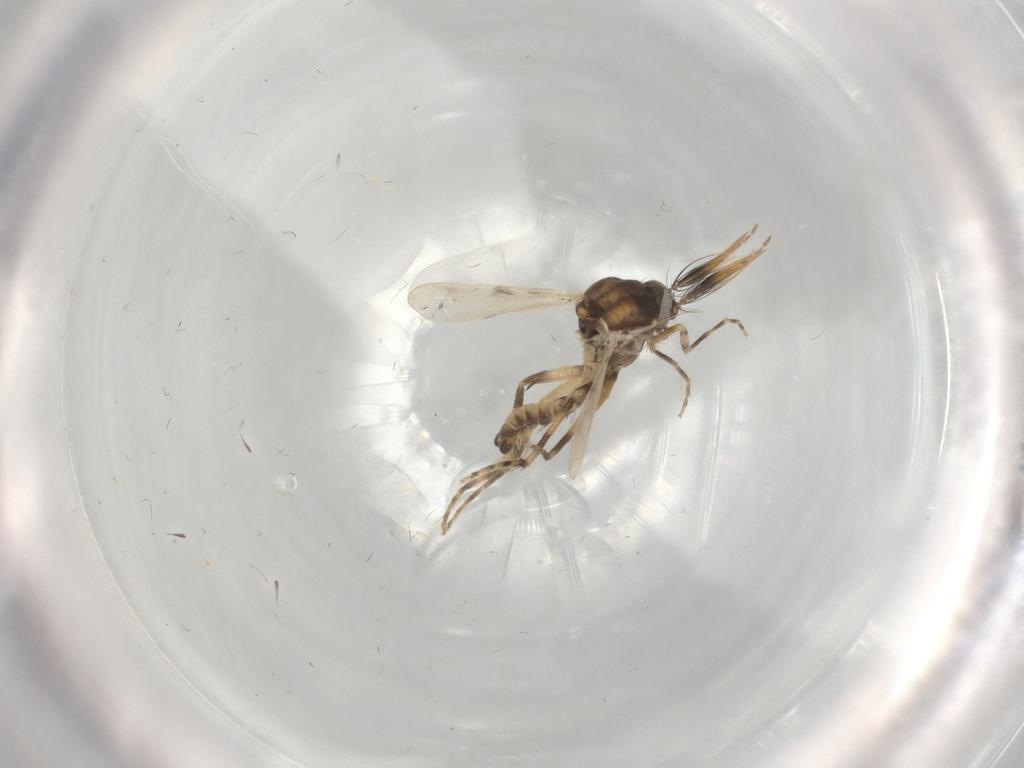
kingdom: Animalia
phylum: Arthropoda
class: Insecta
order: Diptera
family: Ceratopogonidae
